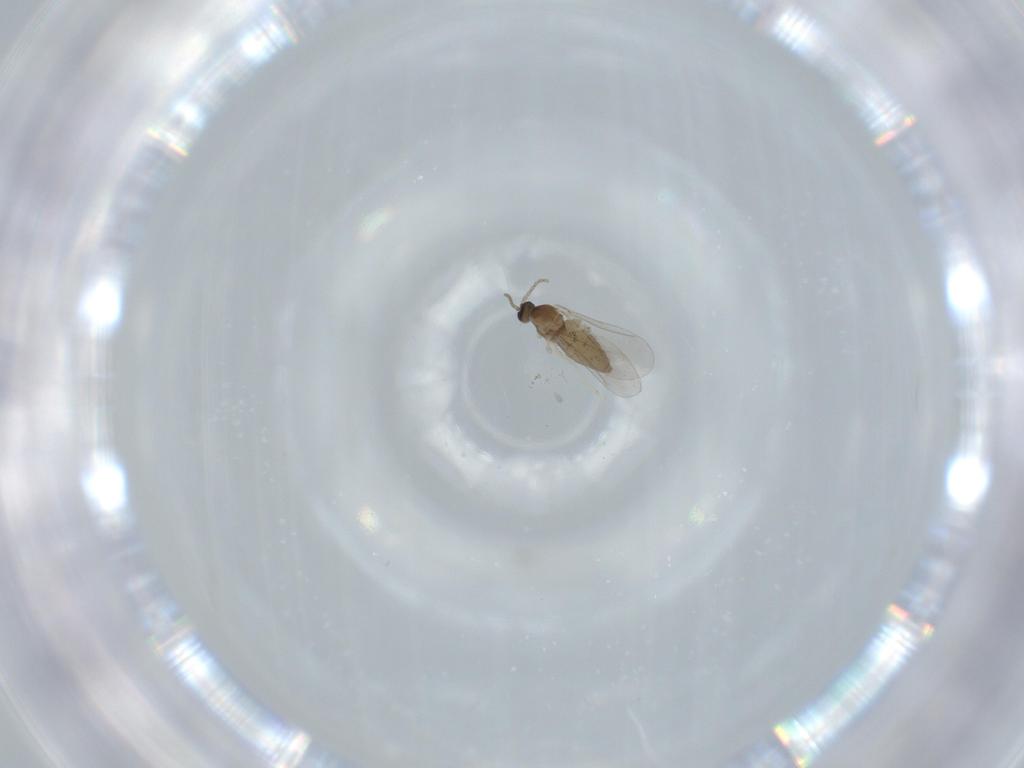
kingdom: Animalia
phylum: Arthropoda
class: Insecta
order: Diptera
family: Cecidomyiidae
